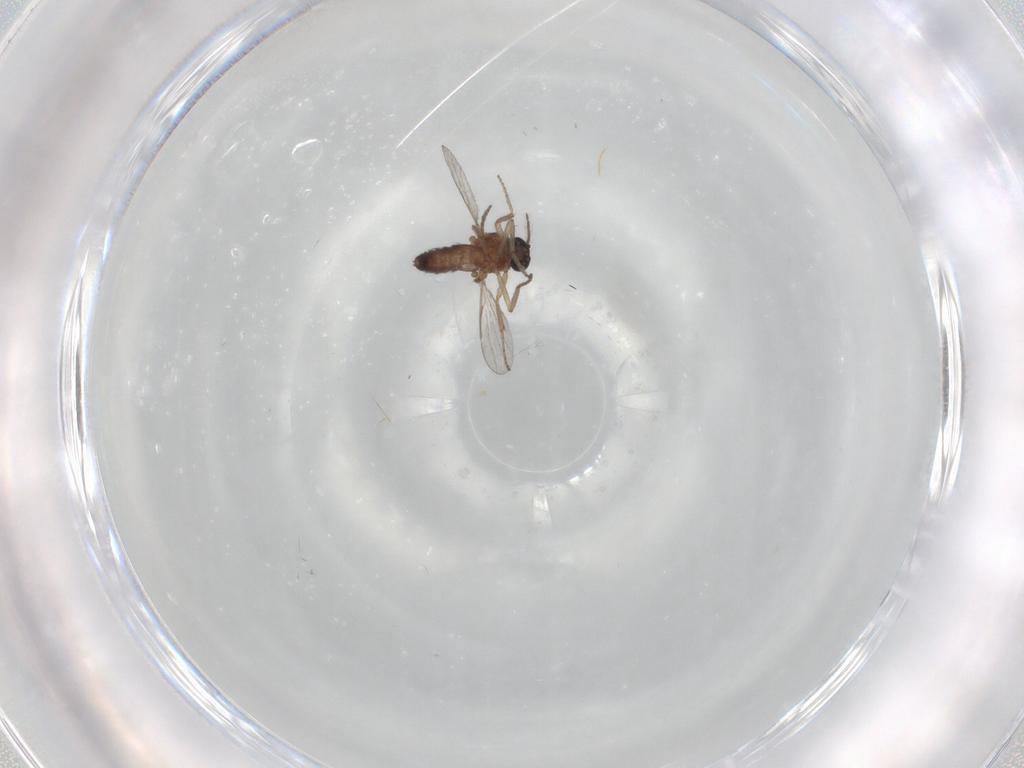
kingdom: Animalia
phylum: Arthropoda
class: Insecta
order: Diptera
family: Ceratopogonidae
